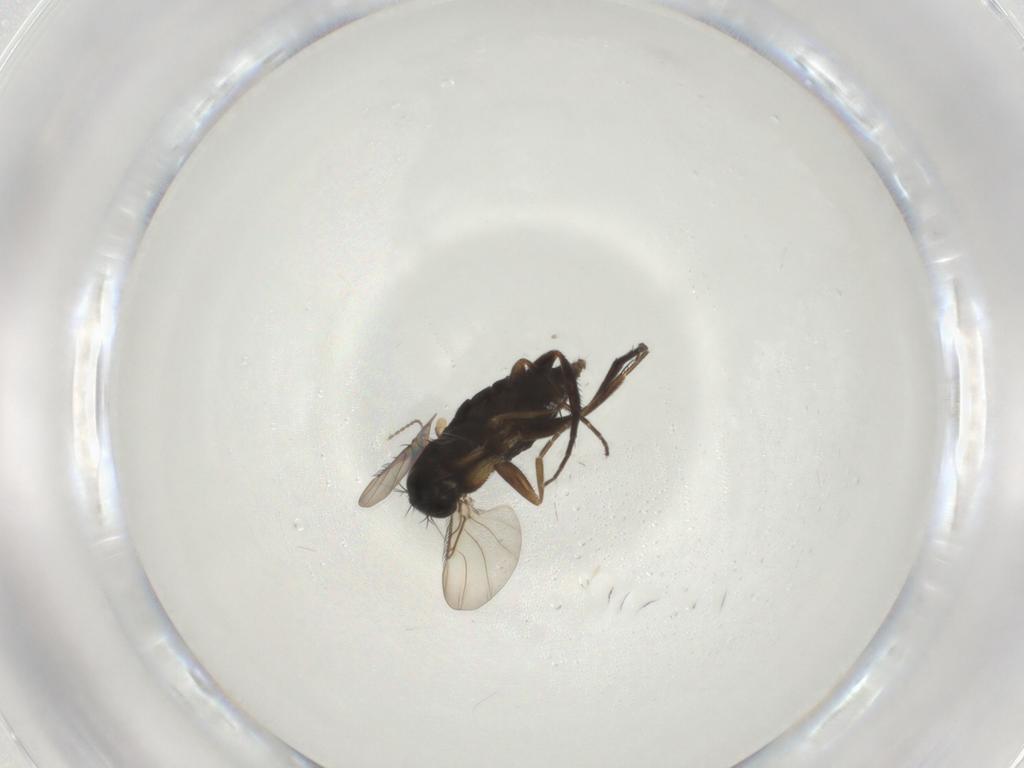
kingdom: Animalia
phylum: Arthropoda
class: Insecta
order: Diptera
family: Phoridae
